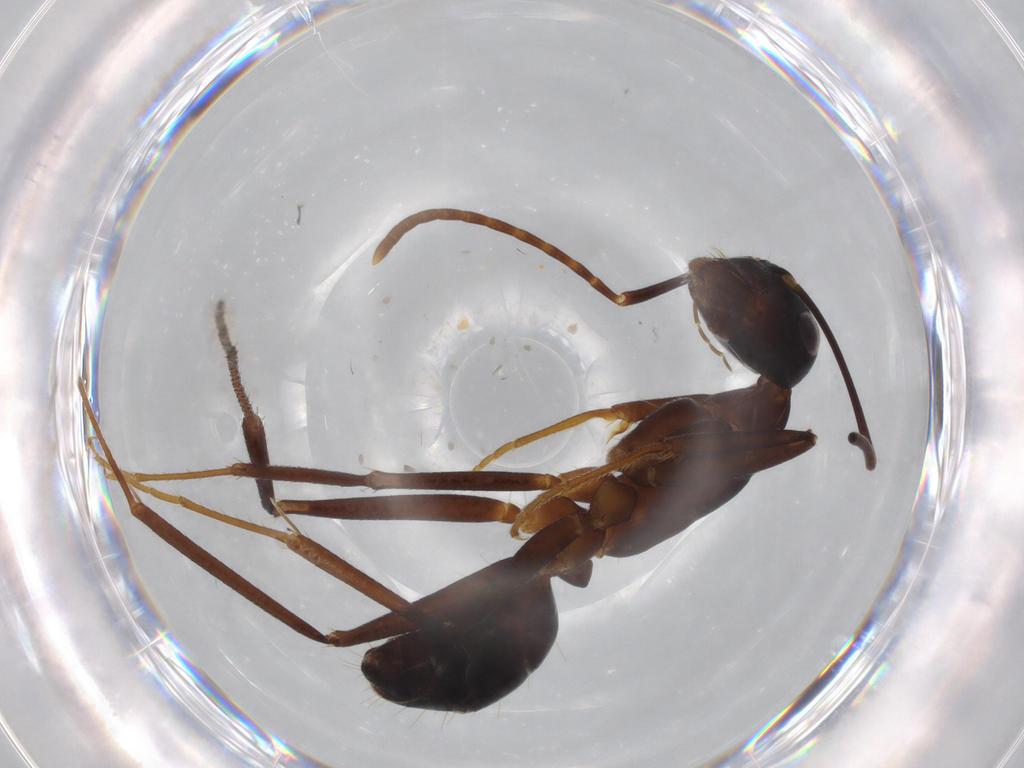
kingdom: Animalia
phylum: Arthropoda
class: Insecta
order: Hymenoptera
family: Formicidae
